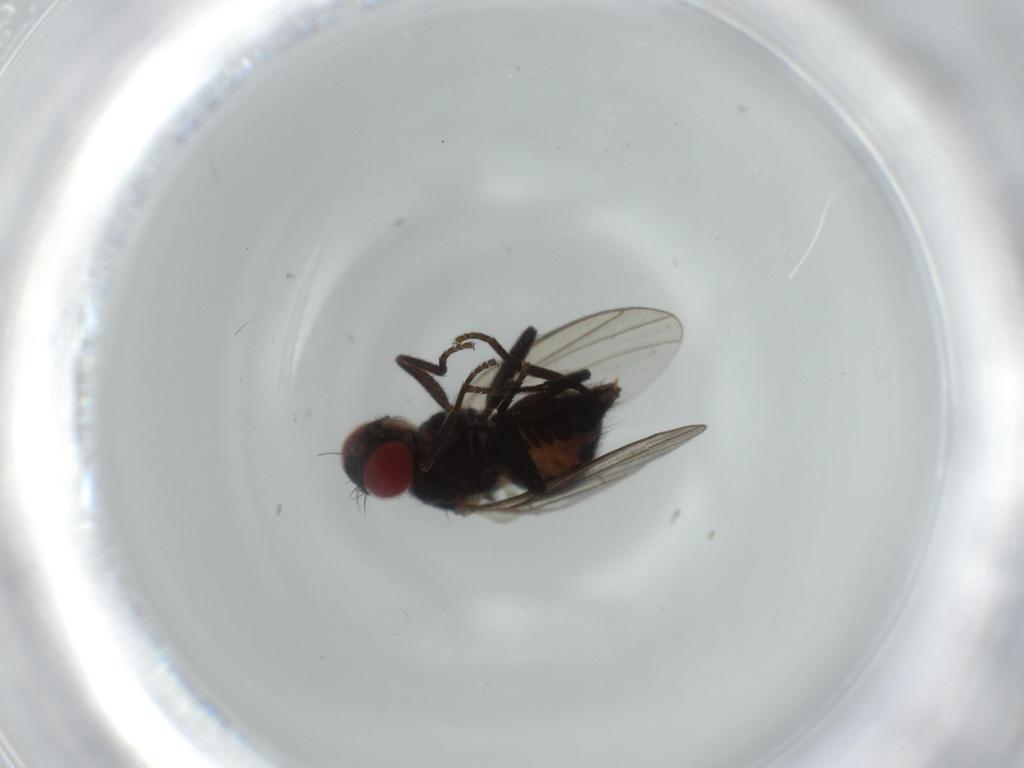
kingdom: Animalia
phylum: Arthropoda
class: Insecta
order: Diptera
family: Agromyzidae
